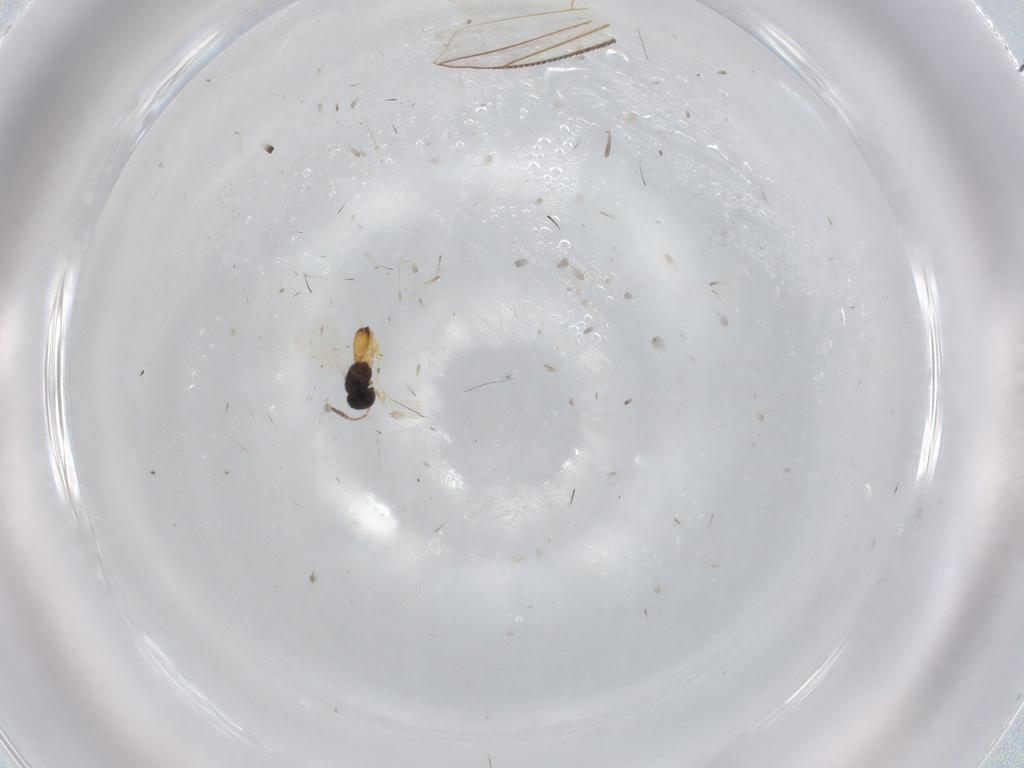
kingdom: Animalia
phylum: Arthropoda
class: Insecta
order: Hymenoptera
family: Scelionidae
